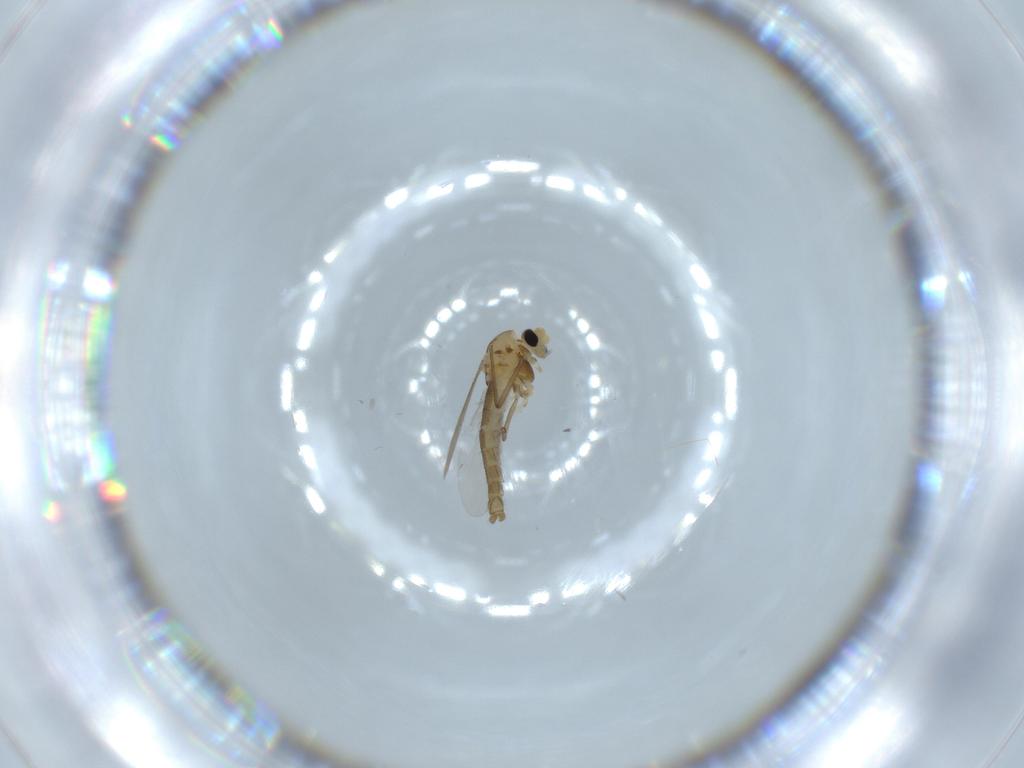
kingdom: Animalia
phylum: Arthropoda
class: Insecta
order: Diptera
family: Chironomidae
